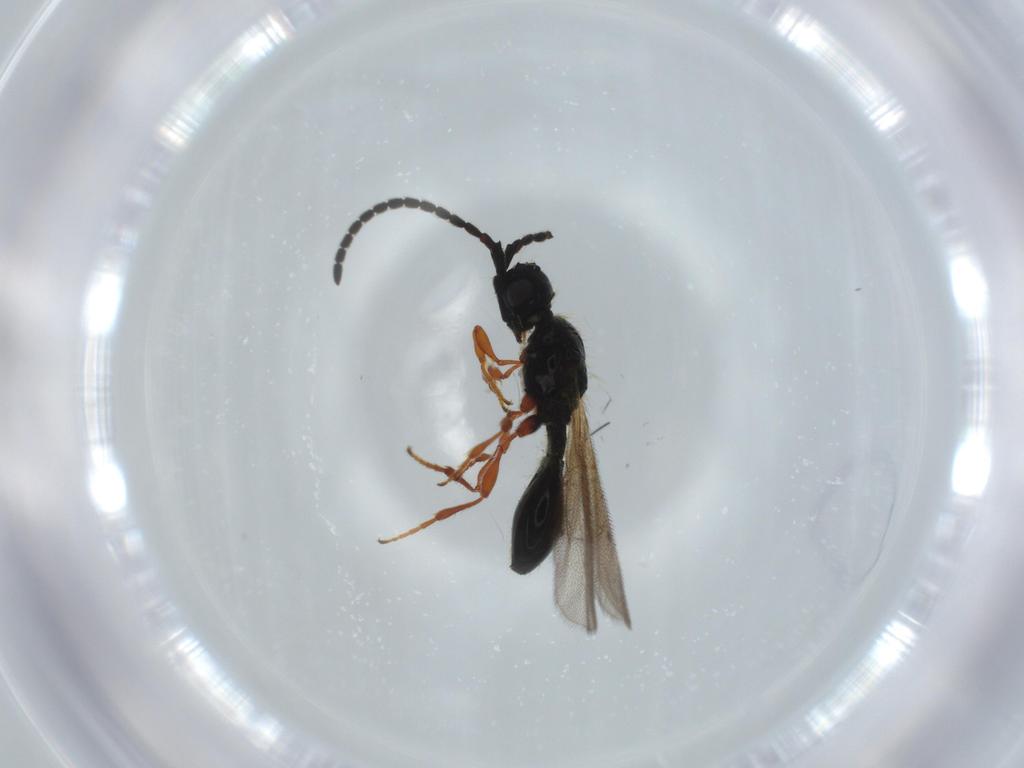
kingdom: Animalia
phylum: Arthropoda
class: Insecta
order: Hymenoptera
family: Diapriidae
